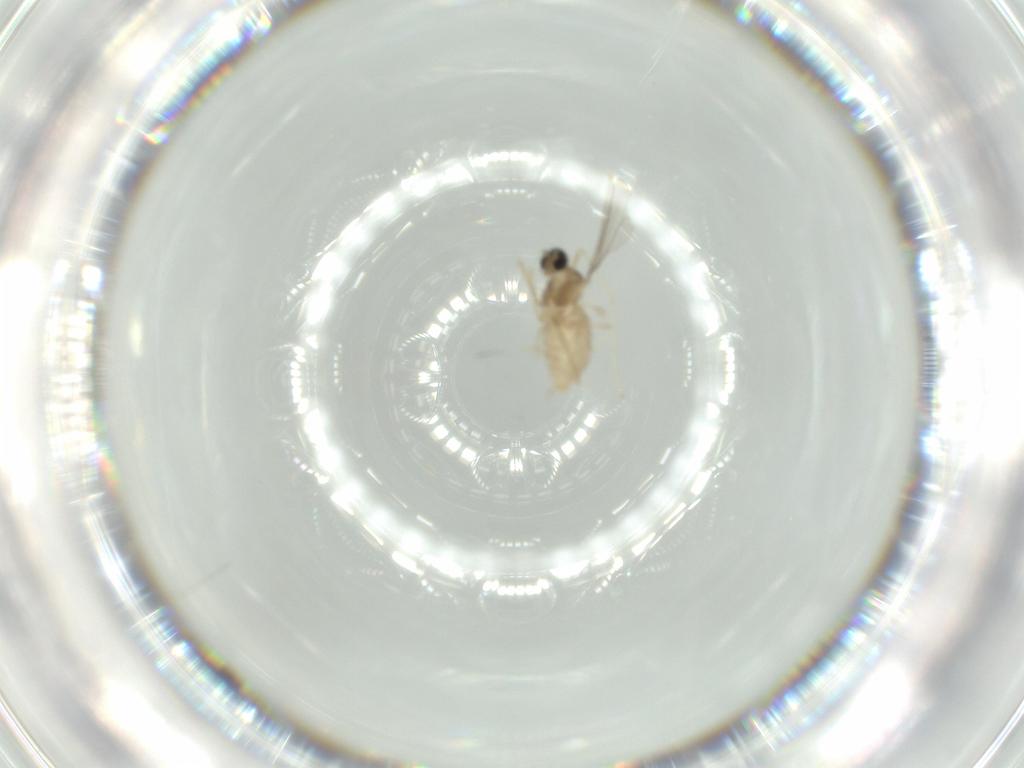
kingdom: Animalia
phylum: Arthropoda
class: Insecta
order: Diptera
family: Cecidomyiidae
